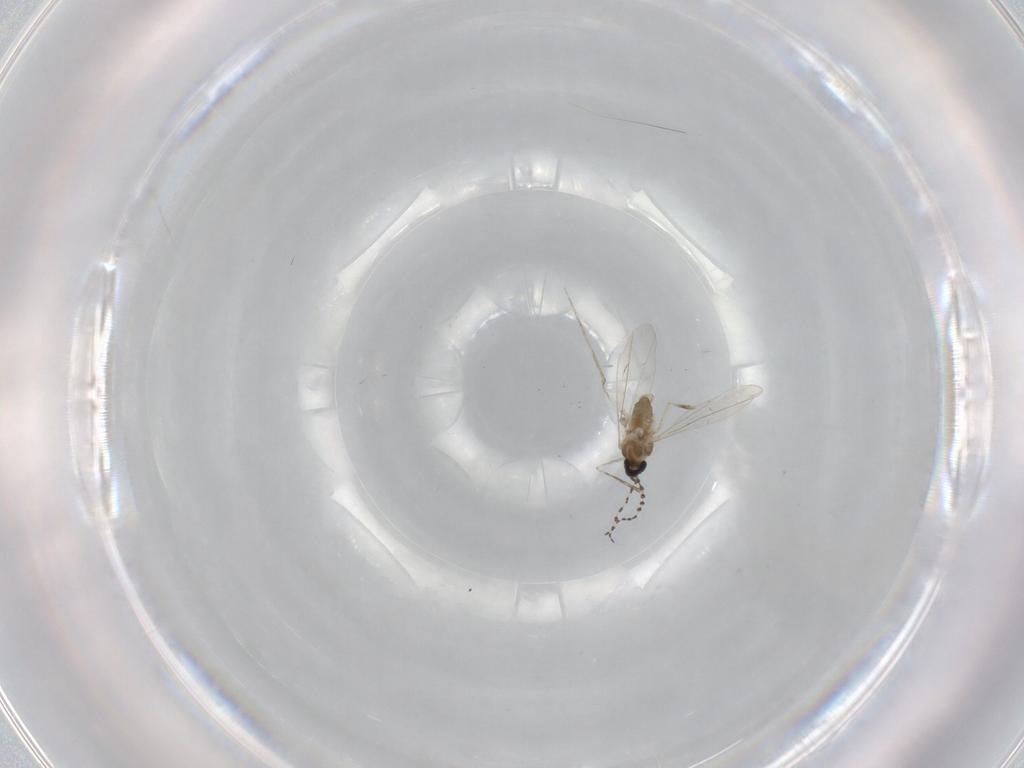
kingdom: Animalia
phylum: Arthropoda
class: Insecta
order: Diptera
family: Cecidomyiidae
